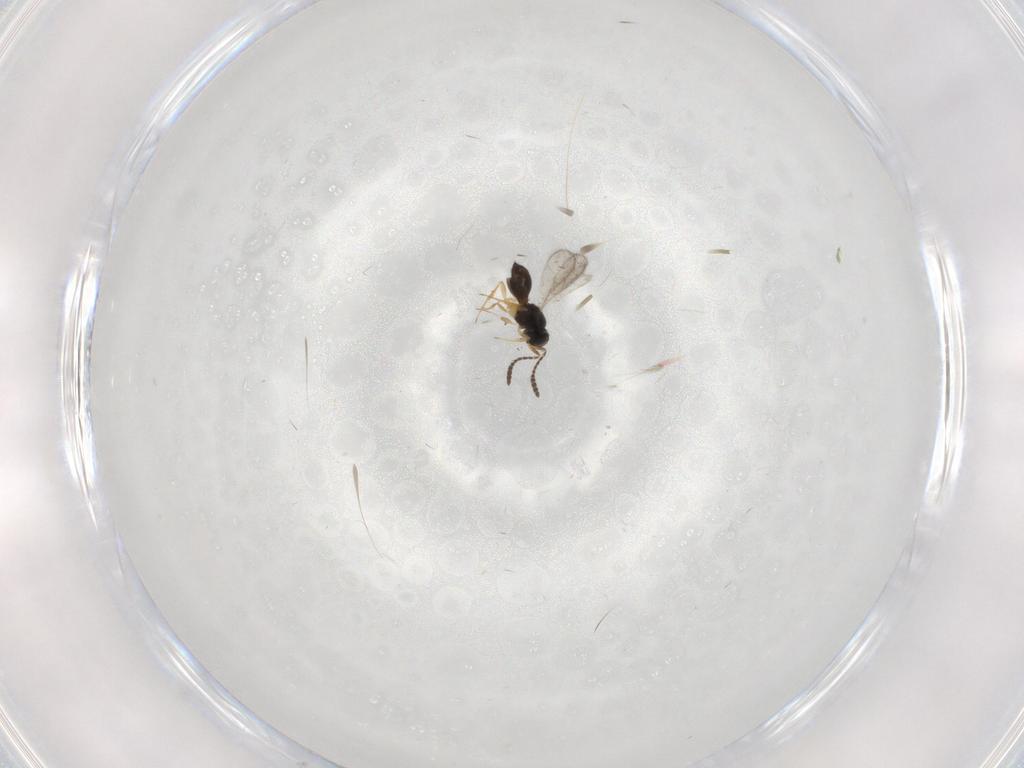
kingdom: Animalia
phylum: Arthropoda
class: Insecta
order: Hymenoptera
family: Scelionidae
